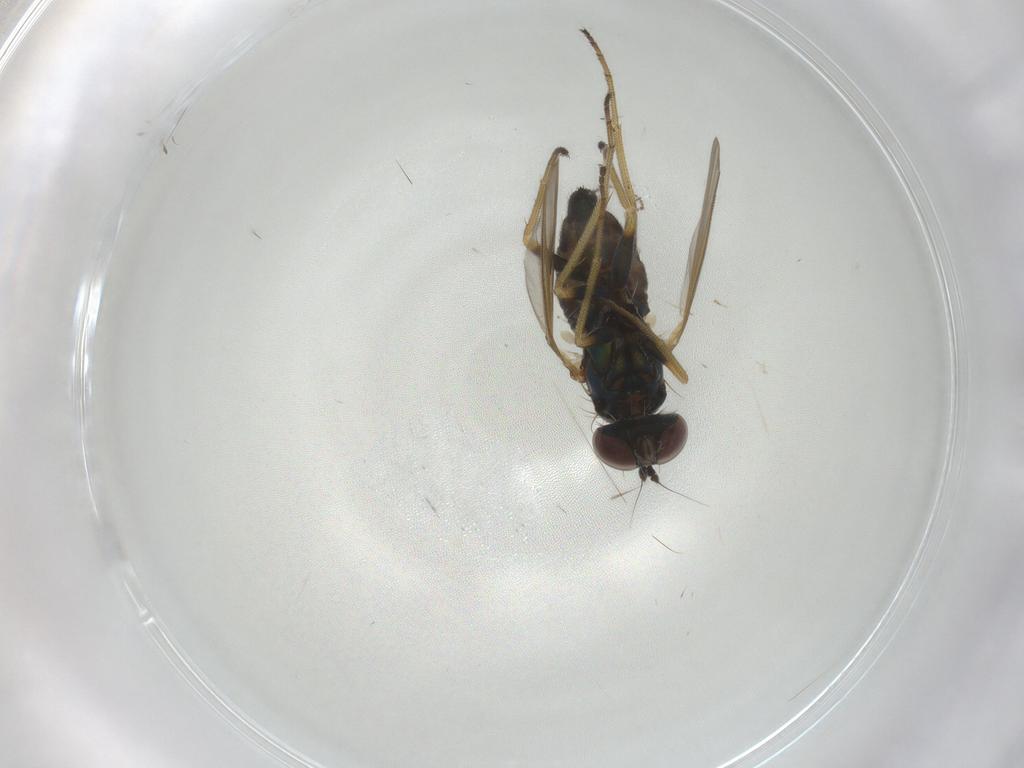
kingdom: Animalia
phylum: Arthropoda
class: Insecta
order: Diptera
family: Dolichopodidae
